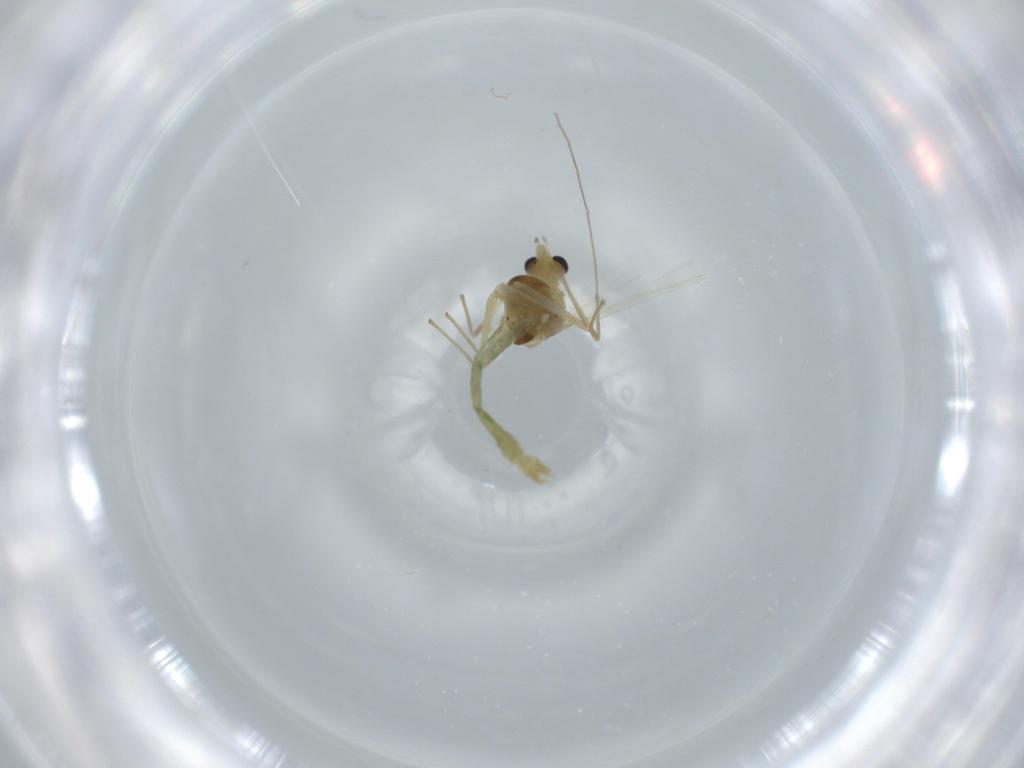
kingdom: Animalia
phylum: Arthropoda
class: Insecta
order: Diptera
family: Chironomidae
